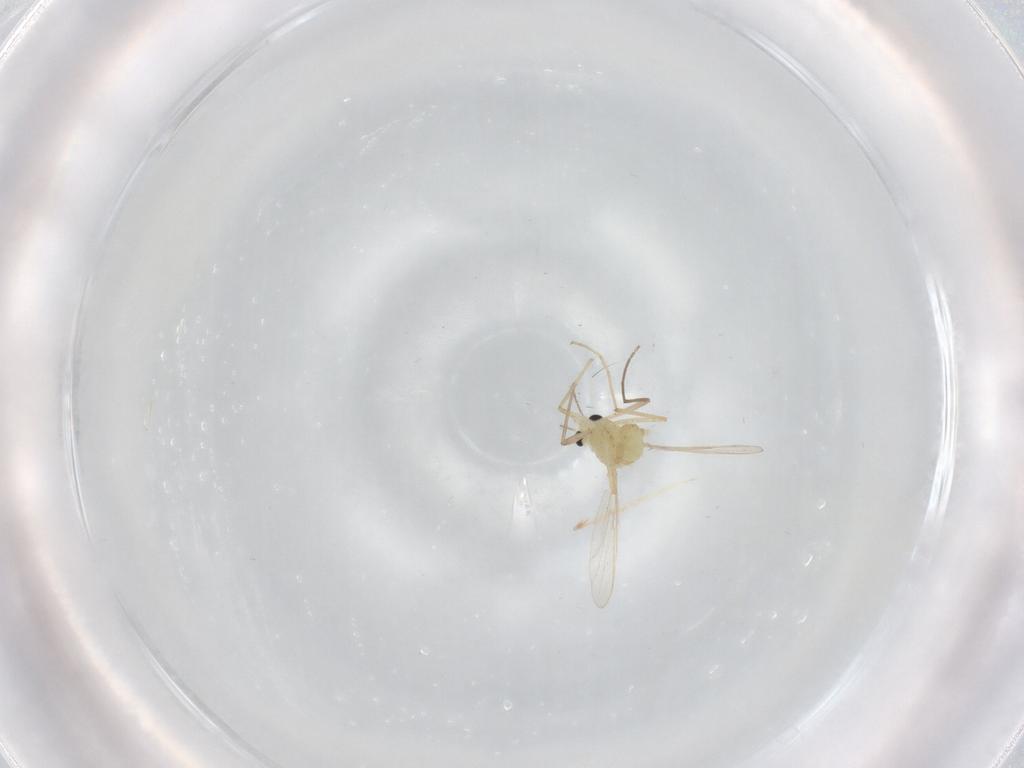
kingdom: Animalia
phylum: Arthropoda
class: Insecta
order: Diptera
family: Chironomidae
